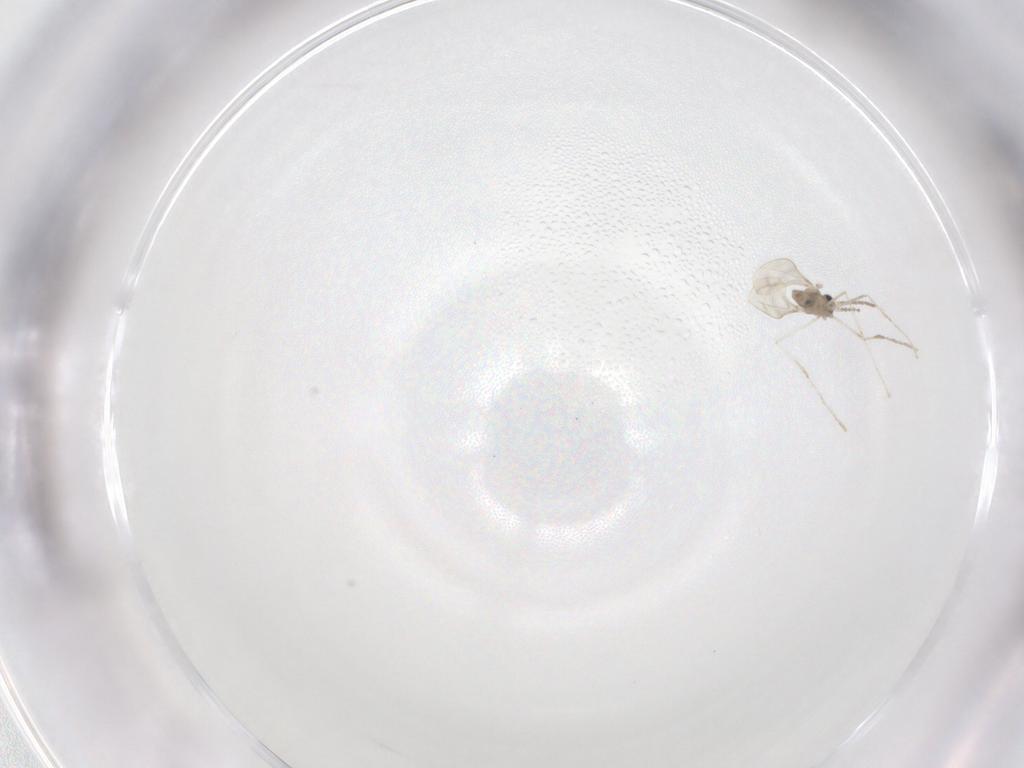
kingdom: Animalia
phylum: Arthropoda
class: Insecta
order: Diptera
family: Cecidomyiidae
